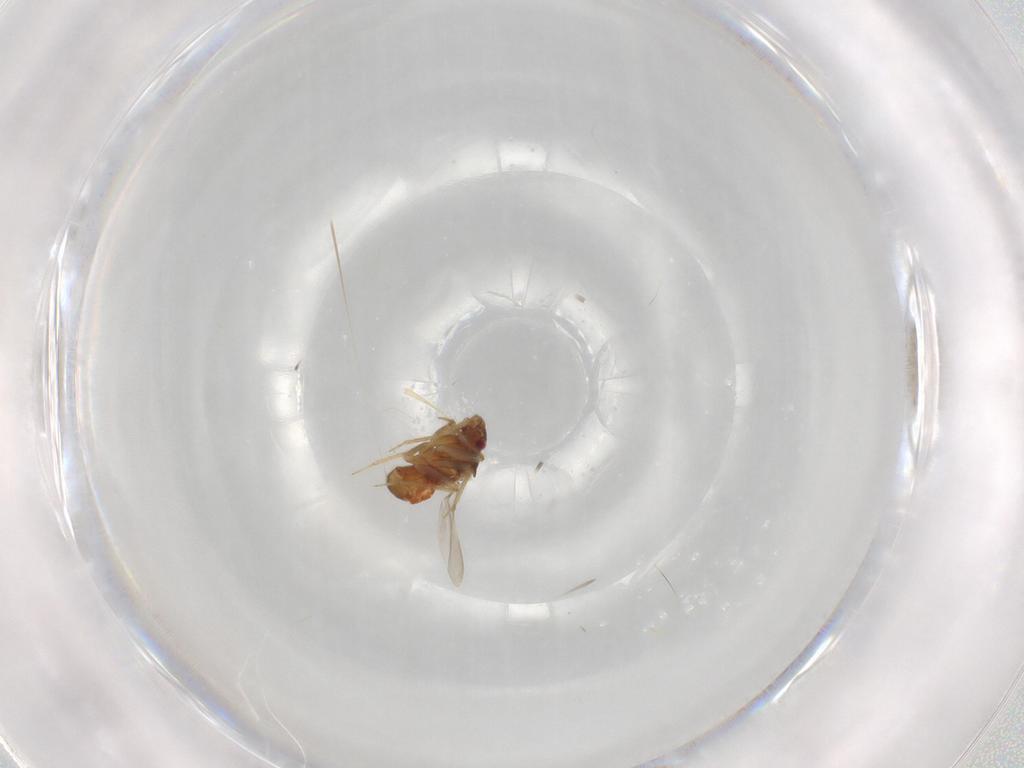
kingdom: Animalia
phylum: Arthropoda
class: Insecta
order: Hemiptera
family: Ceratocombidae
